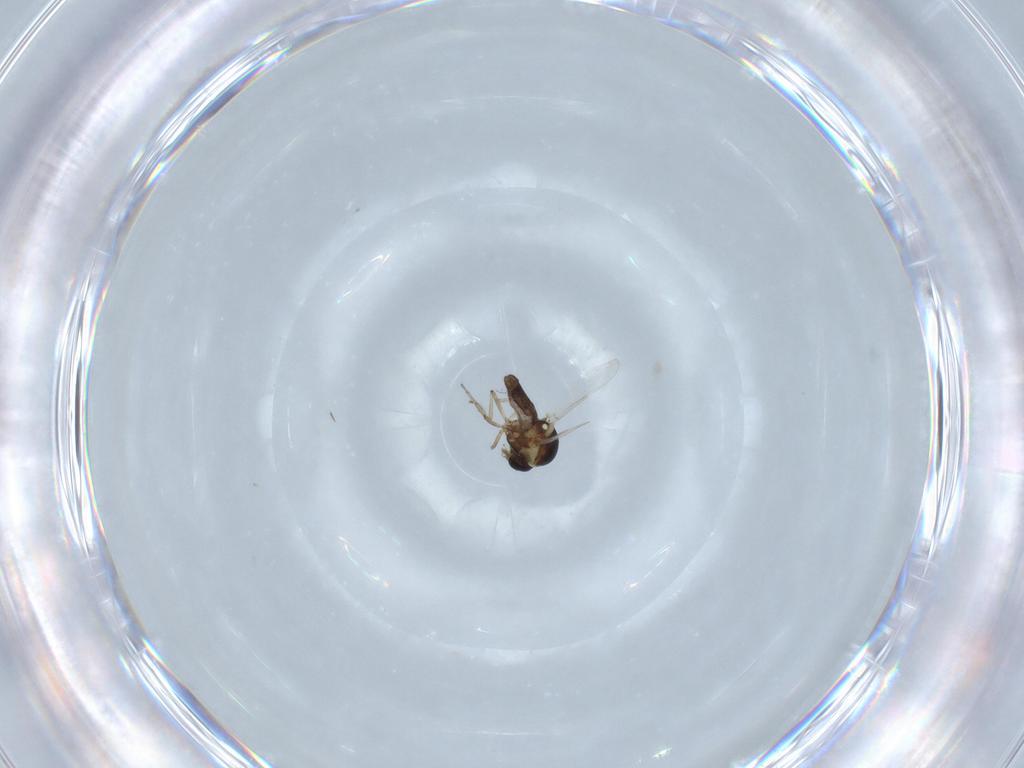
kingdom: Animalia
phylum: Arthropoda
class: Insecta
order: Diptera
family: Ceratopogonidae
